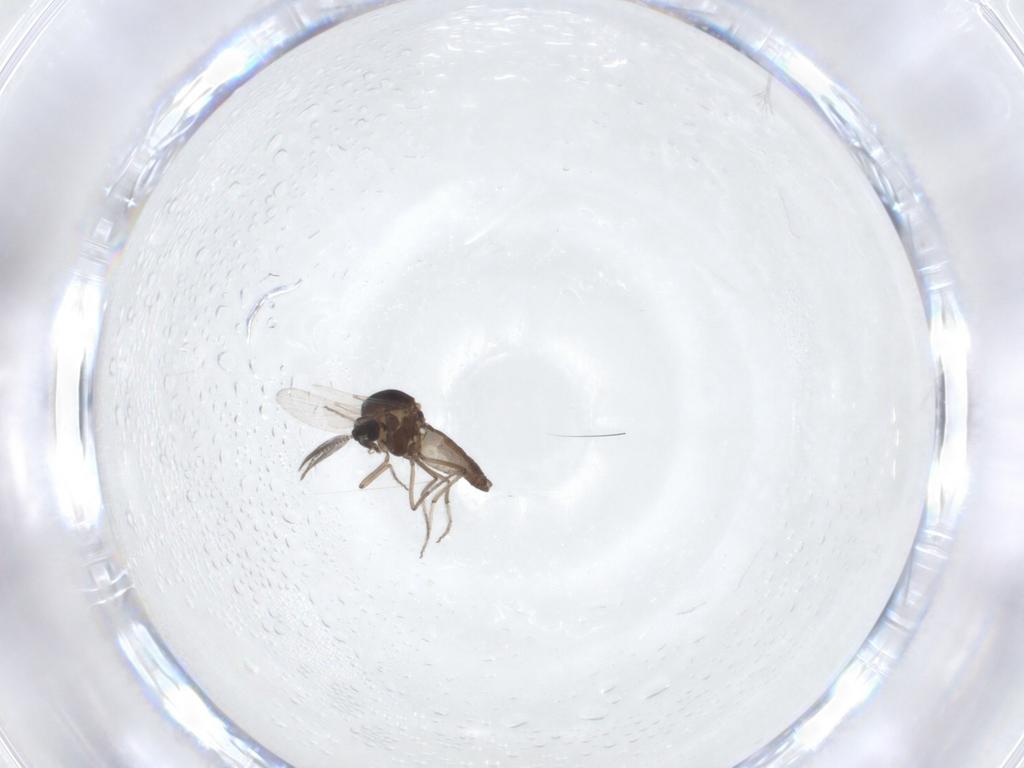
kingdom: Animalia
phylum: Arthropoda
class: Insecta
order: Diptera
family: Ceratopogonidae
